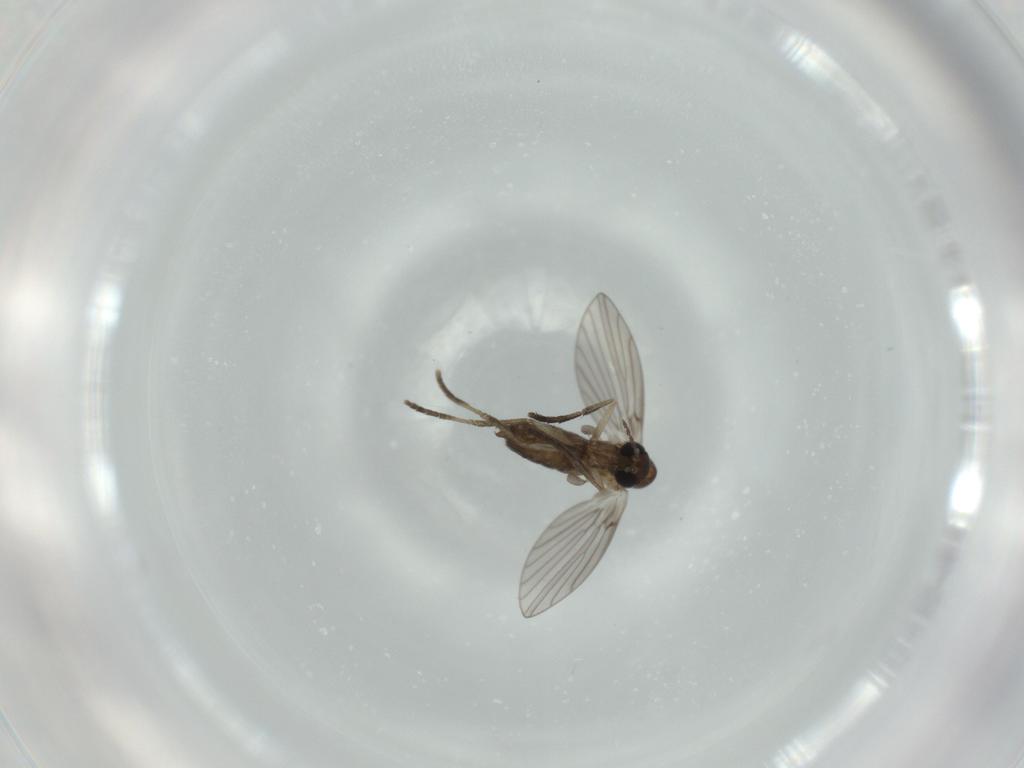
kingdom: Animalia
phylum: Arthropoda
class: Insecta
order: Diptera
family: Psychodidae
